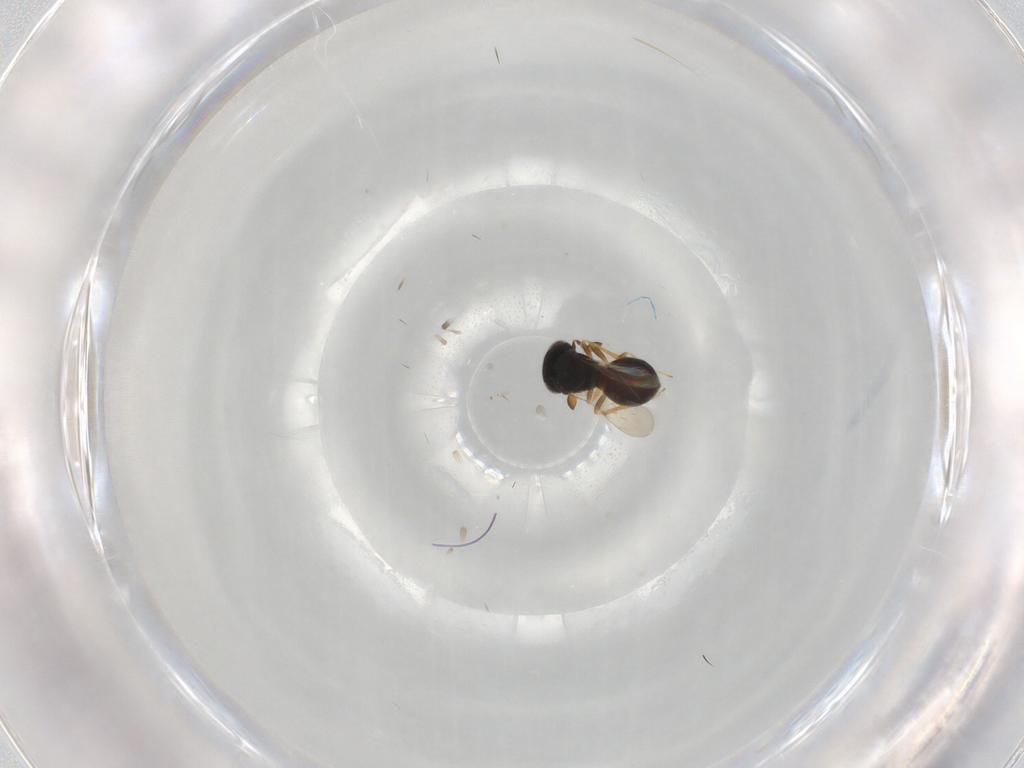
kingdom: Animalia
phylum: Arthropoda
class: Insecta
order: Hymenoptera
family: Scelionidae
